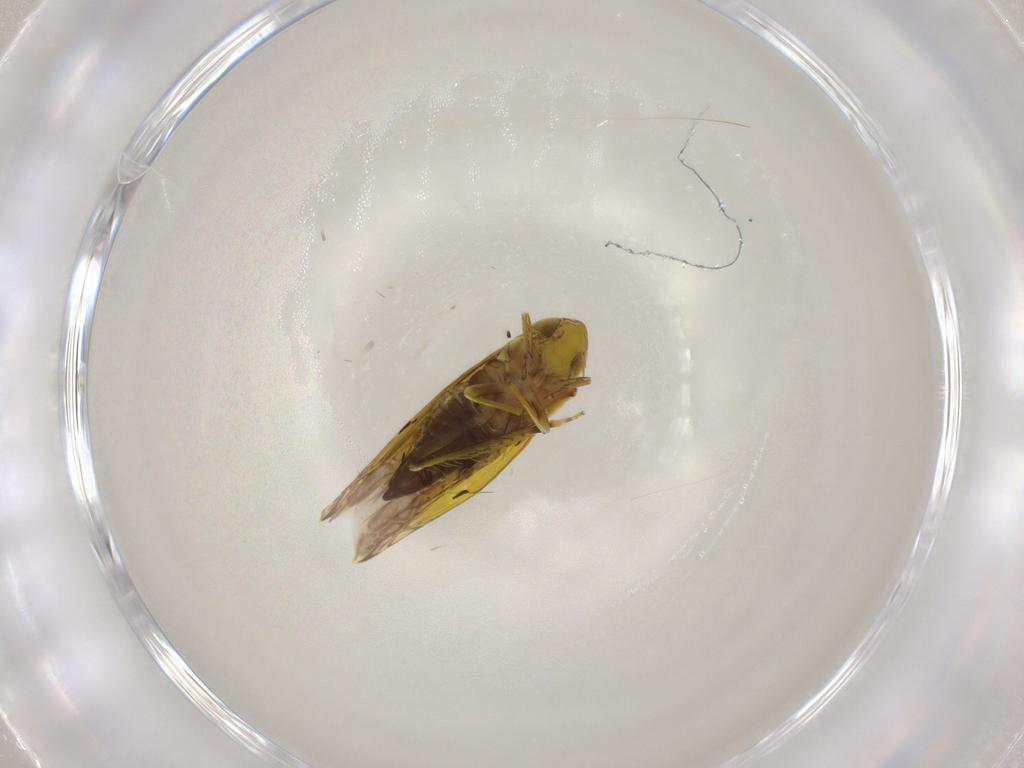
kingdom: Animalia
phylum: Arthropoda
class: Insecta
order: Hemiptera
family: Cicadellidae
